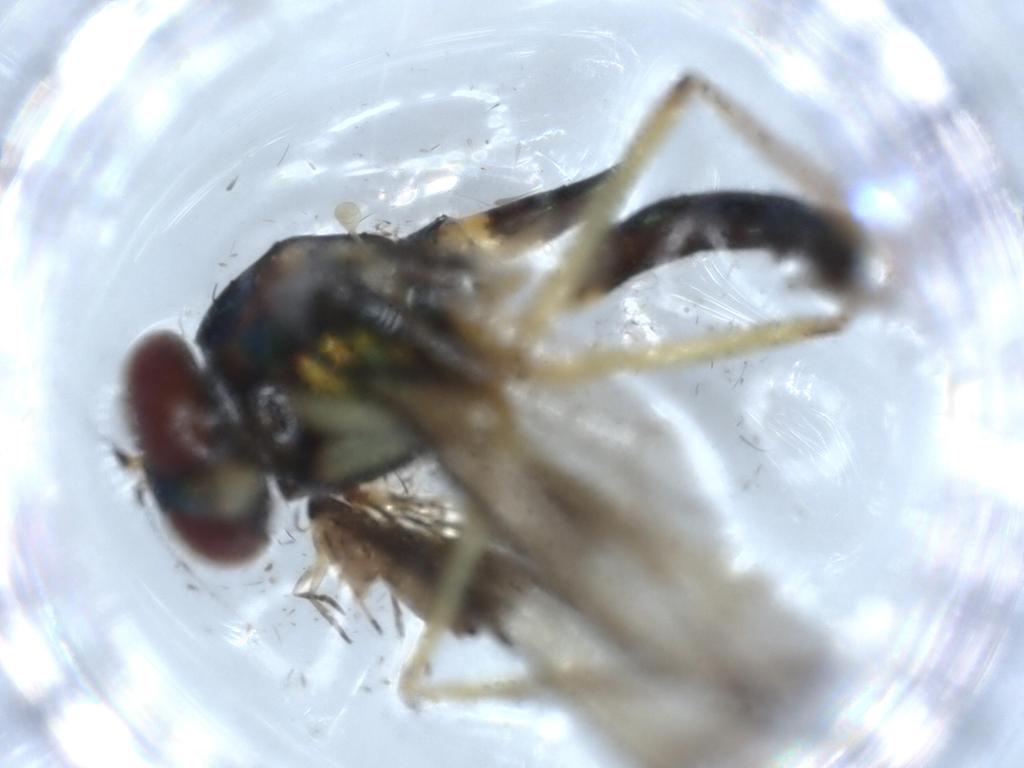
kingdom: Animalia
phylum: Arthropoda
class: Insecta
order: Diptera
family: Dolichopodidae
